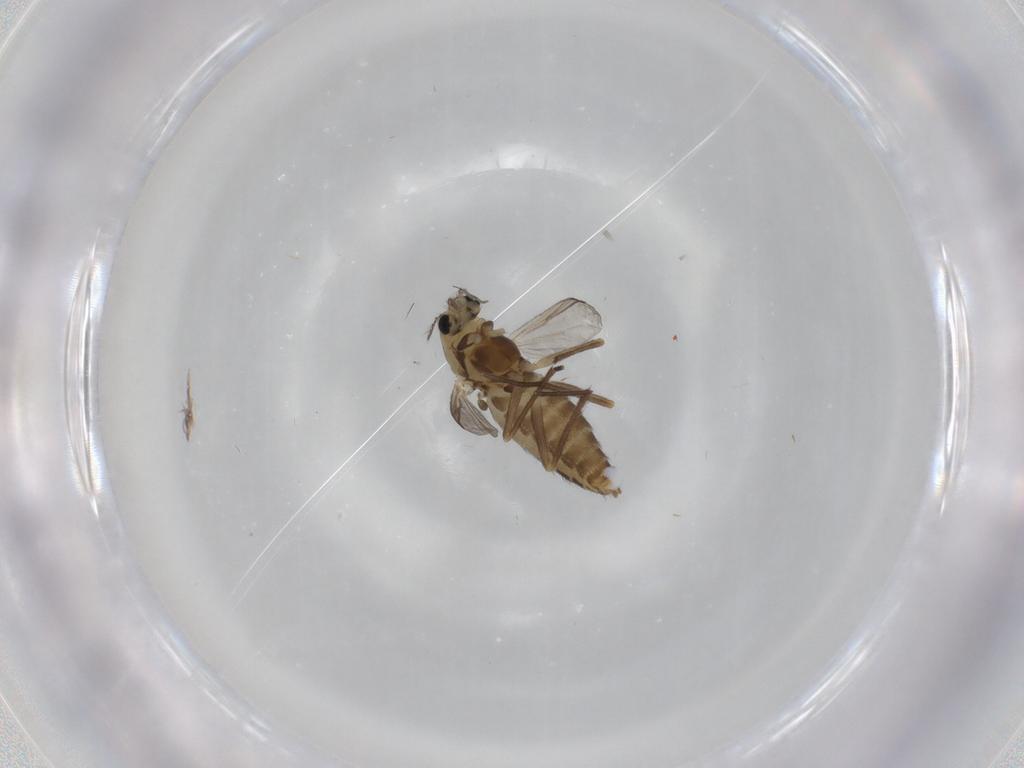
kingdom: Animalia
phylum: Arthropoda
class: Insecta
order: Diptera
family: Chironomidae
